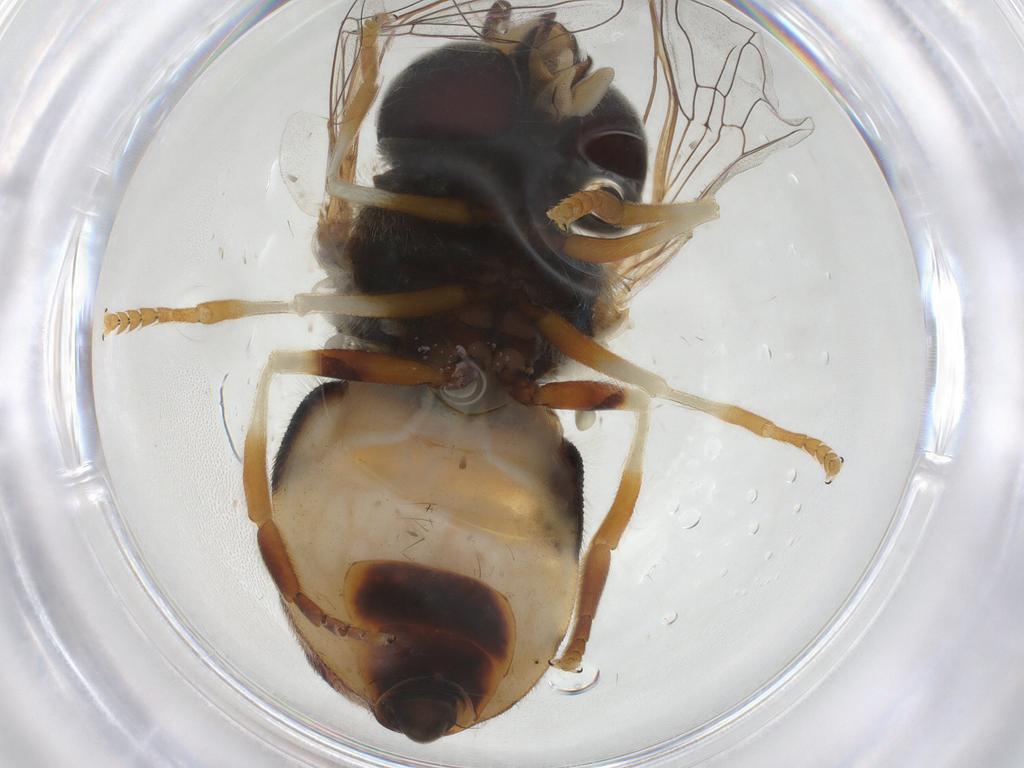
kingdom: Animalia
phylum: Arthropoda
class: Insecta
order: Diptera
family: Syrphidae
